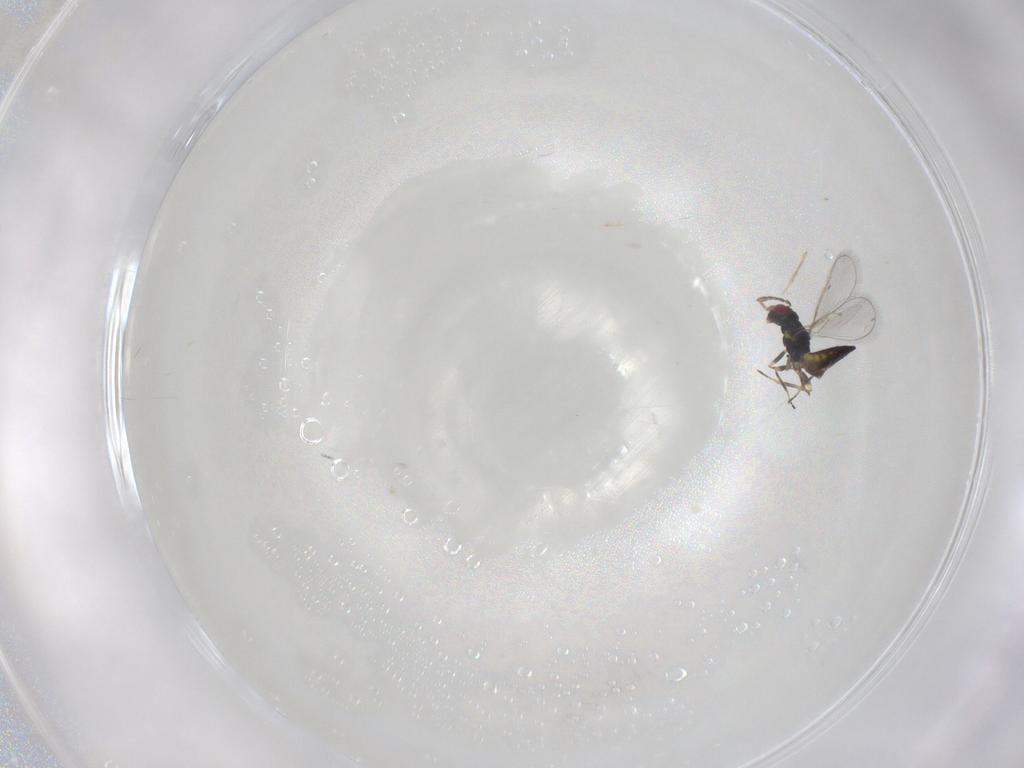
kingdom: Animalia
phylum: Arthropoda
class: Insecta
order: Hymenoptera
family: Eulophidae
